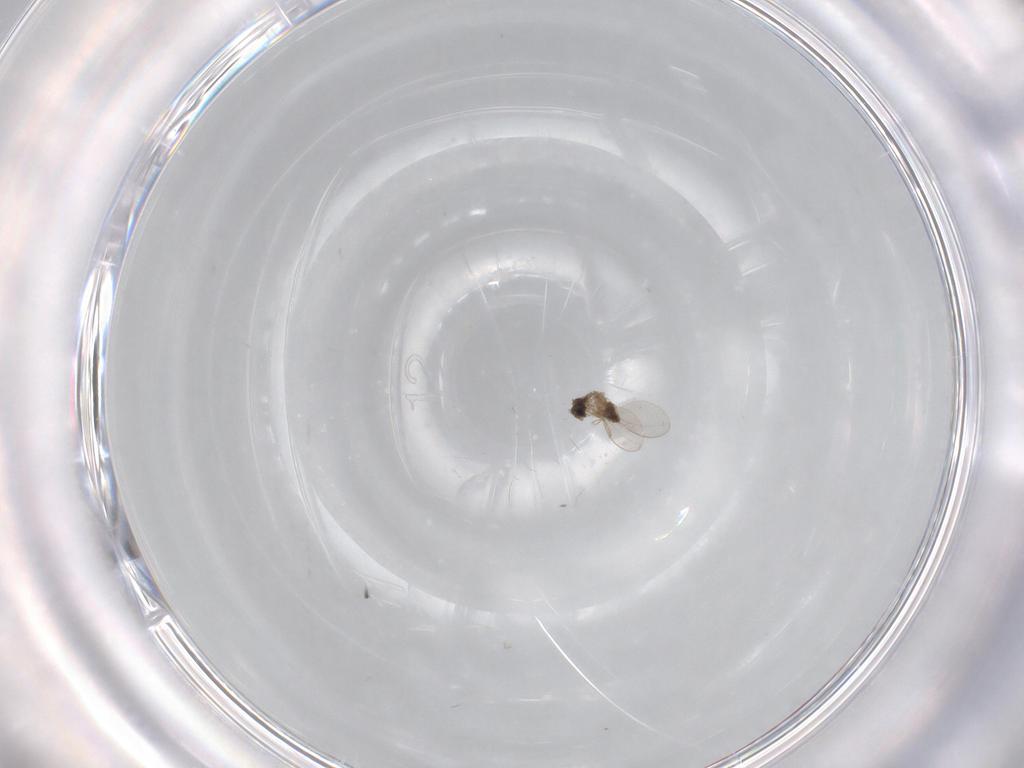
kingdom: Animalia
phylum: Arthropoda
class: Insecta
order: Diptera
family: Cecidomyiidae
